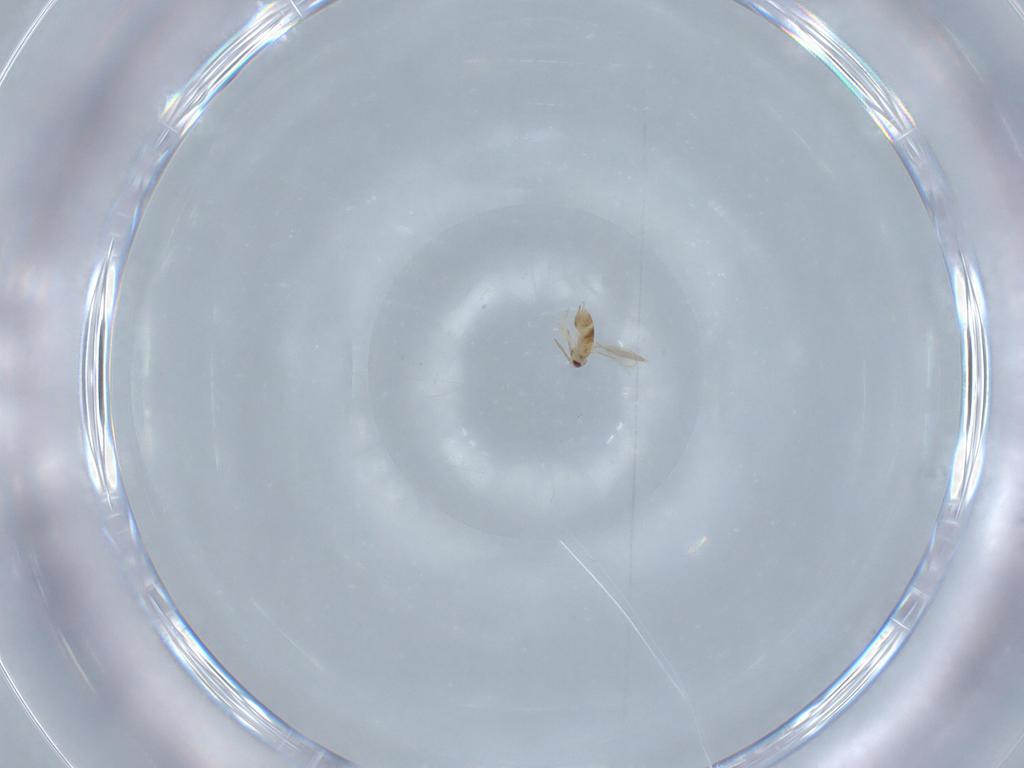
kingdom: Animalia
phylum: Arthropoda
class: Insecta
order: Hymenoptera
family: Aphelinidae
